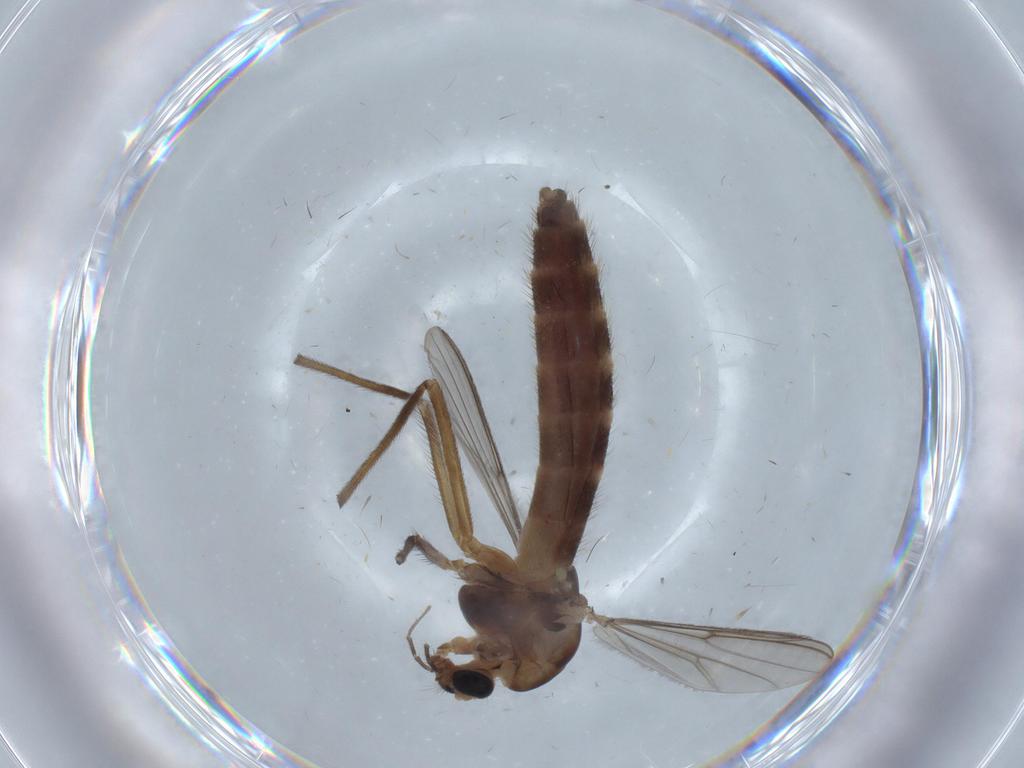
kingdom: Animalia
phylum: Arthropoda
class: Insecta
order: Diptera
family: Chironomidae
